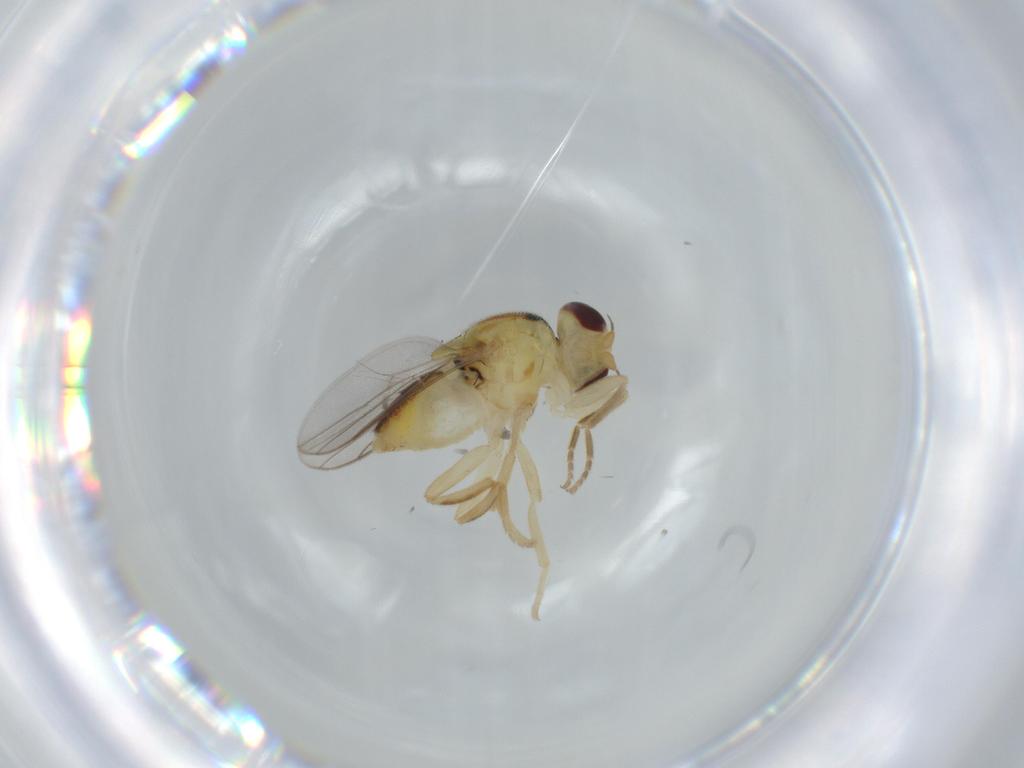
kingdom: Animalia
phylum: Arthropoda
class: Insecta
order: Diptera
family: Chloropidae
